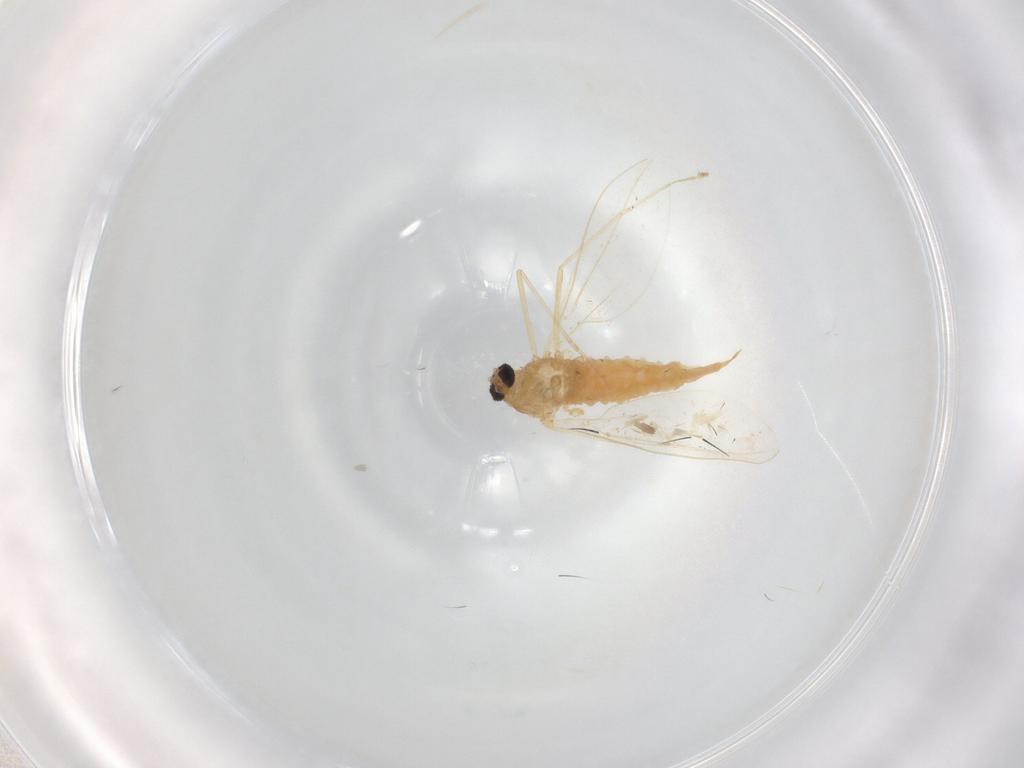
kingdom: Animalia
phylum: Arthropoda
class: Insecta
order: Diptera
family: Cecidomyiidae
